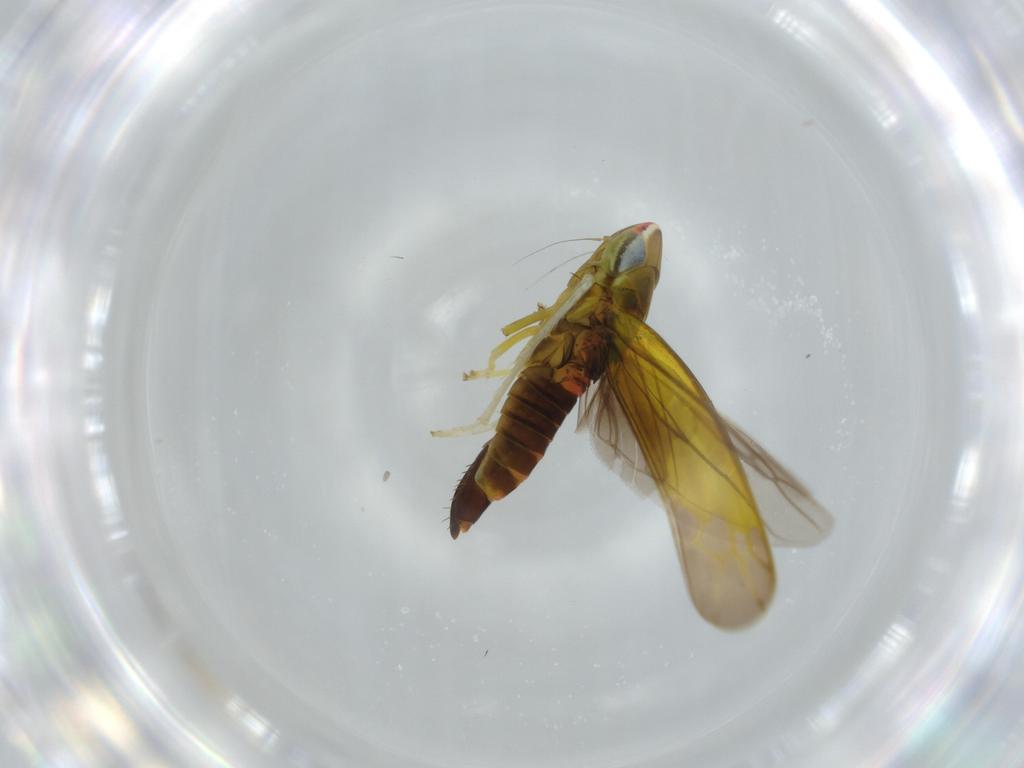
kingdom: Animalia
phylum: Arthropoda
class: Insecta
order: Hemiptera
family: Cicadellidae
